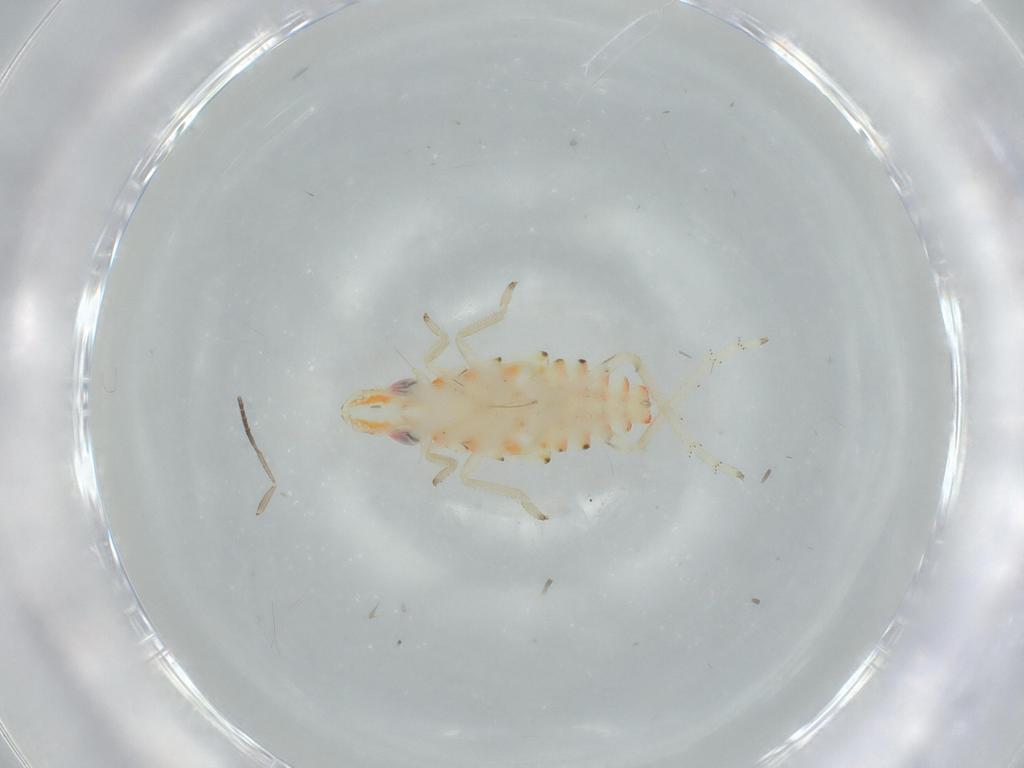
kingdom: Animalia
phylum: Arthropoda
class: Insecta
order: Hemiptera
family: Tropiduchidae
